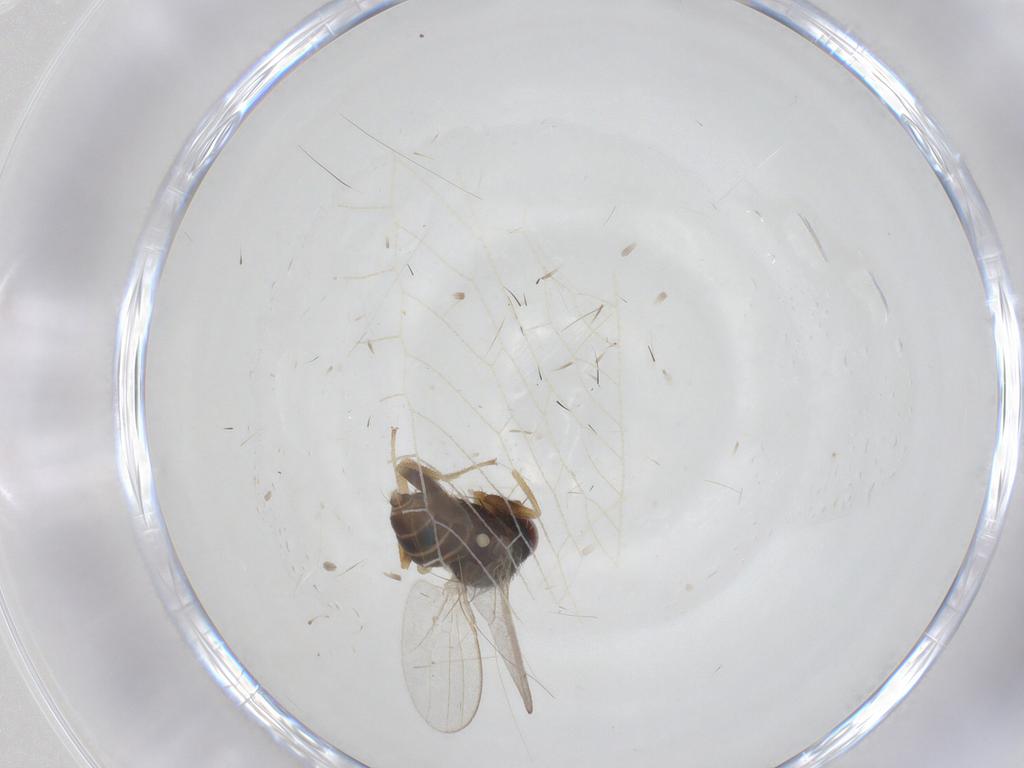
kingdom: Animalia
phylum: Arthropoda
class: Insecta
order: Diptera
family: Milichiidae
